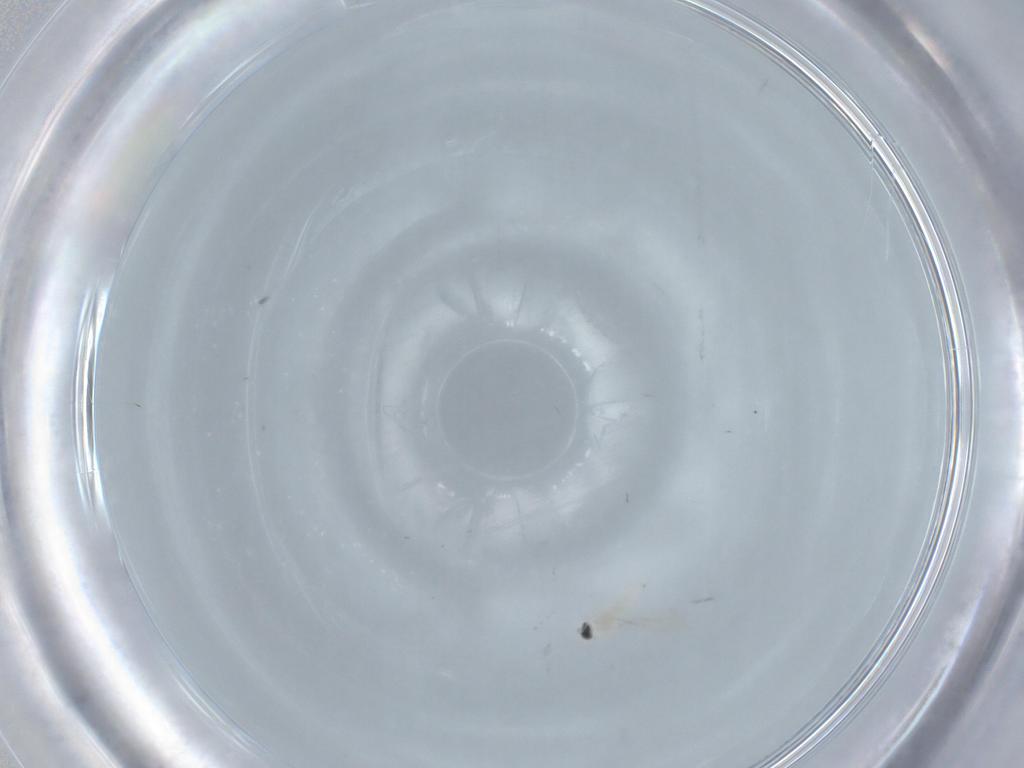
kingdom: Animalia
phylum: Arthropoda
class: Insecta
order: Diptera
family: Hybotidae
